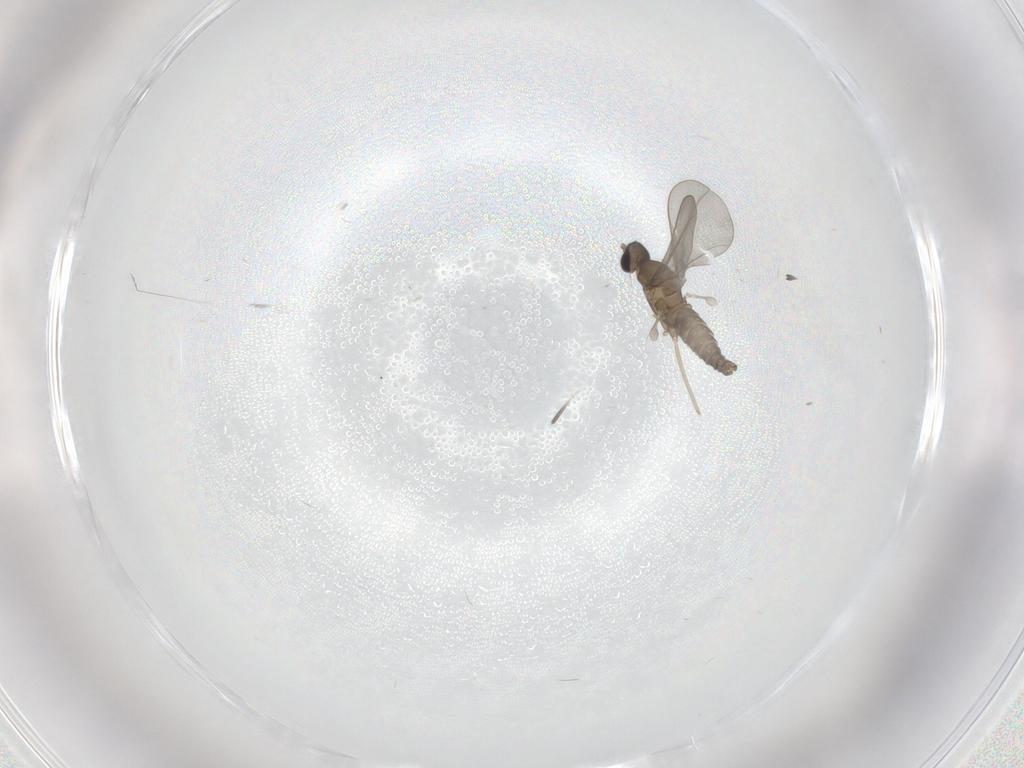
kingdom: Animalia
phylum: Arthropoda
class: Insecta
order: Diptera
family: Cecidomyiidae
